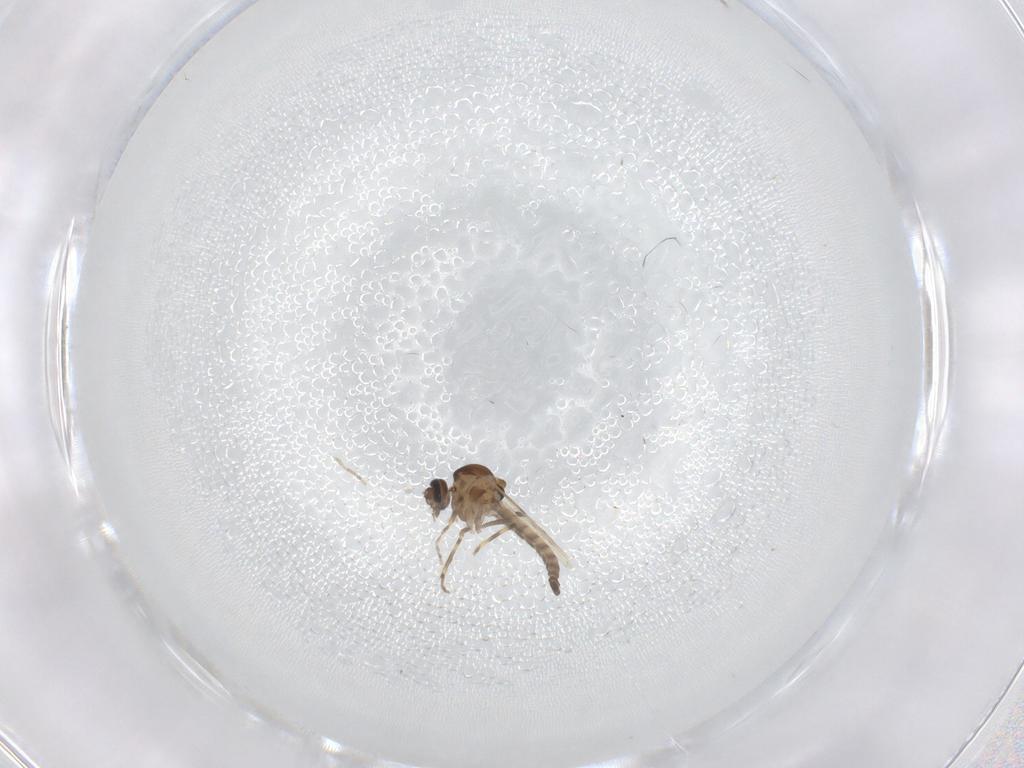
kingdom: Animalia
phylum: Arthropoda
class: Insecta
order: Diptera
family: Ceratopogonidae
